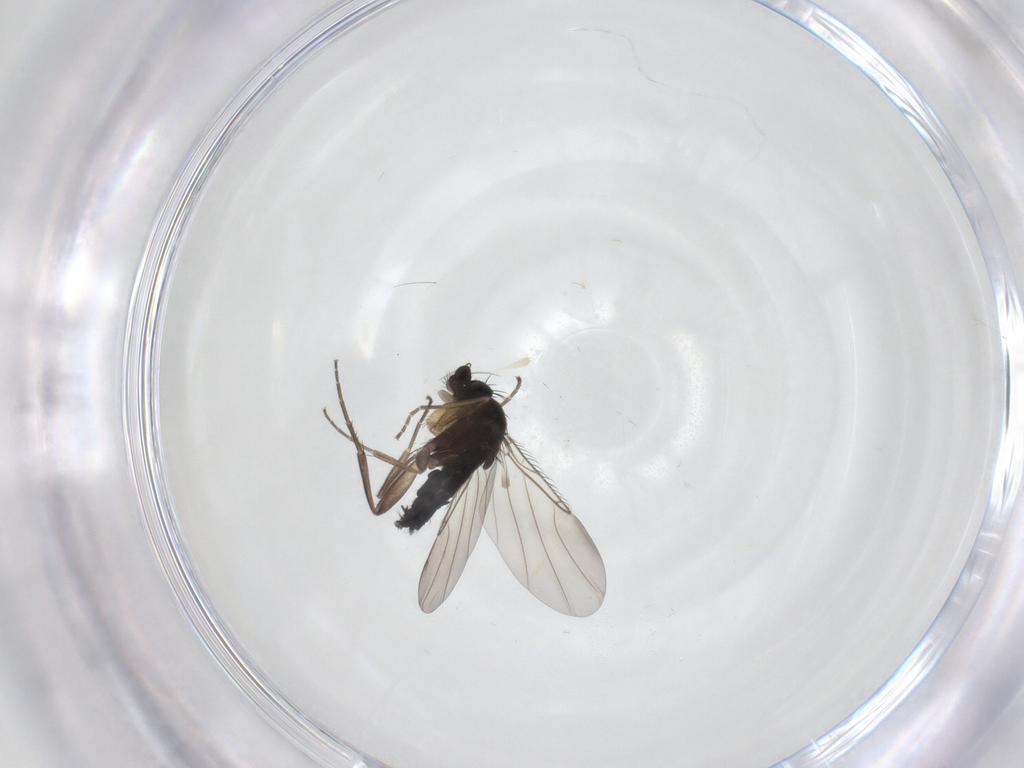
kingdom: Animalia
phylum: Arthropoda
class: Insecta
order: Diptera
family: Phoridae
